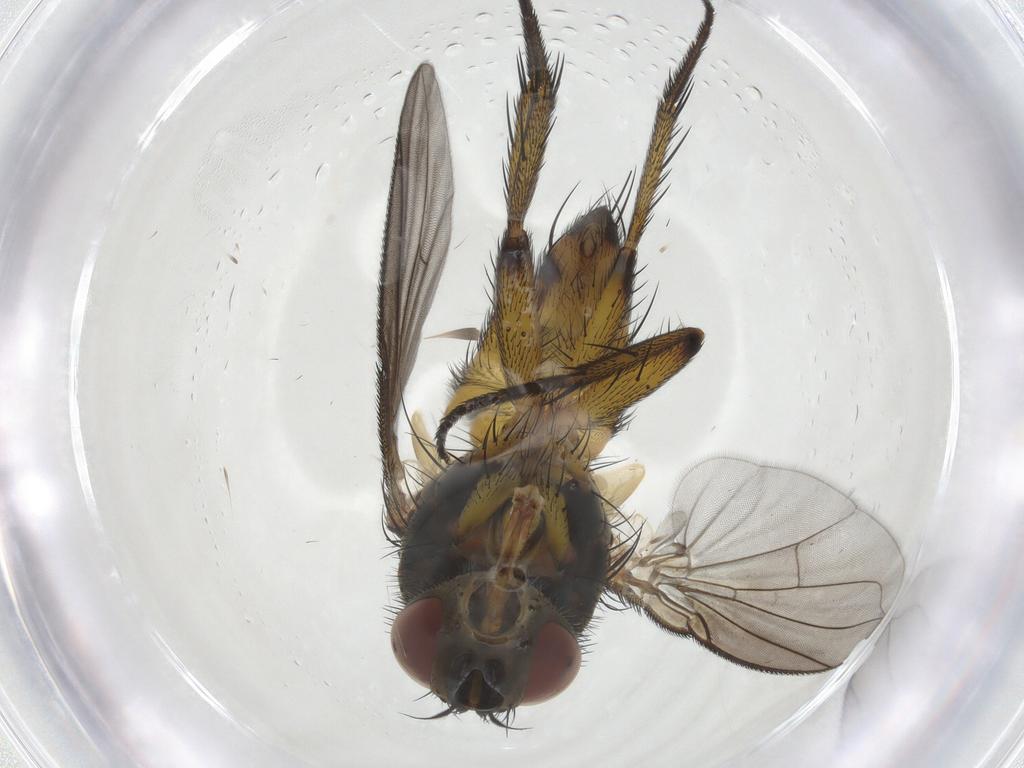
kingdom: Animalia
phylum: Arthropoda
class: Insecta
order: Diptera
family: Tachinidae
